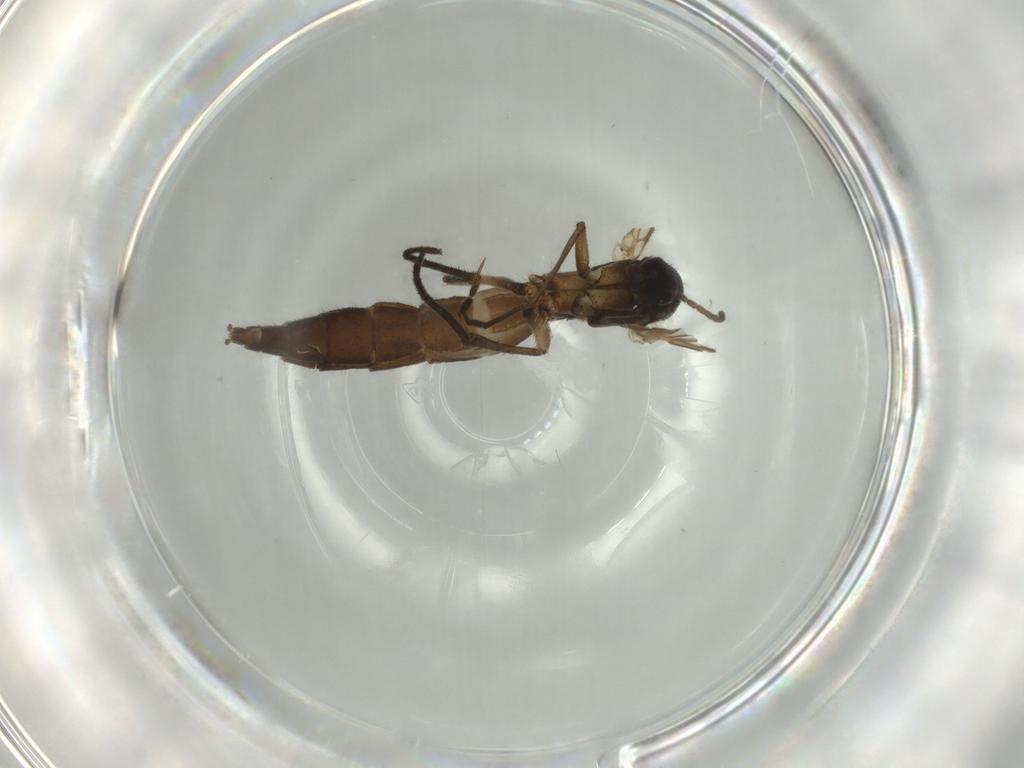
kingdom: Animalia
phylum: Arthropoda
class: Insecta
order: Diptera
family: Mycetophilidae
